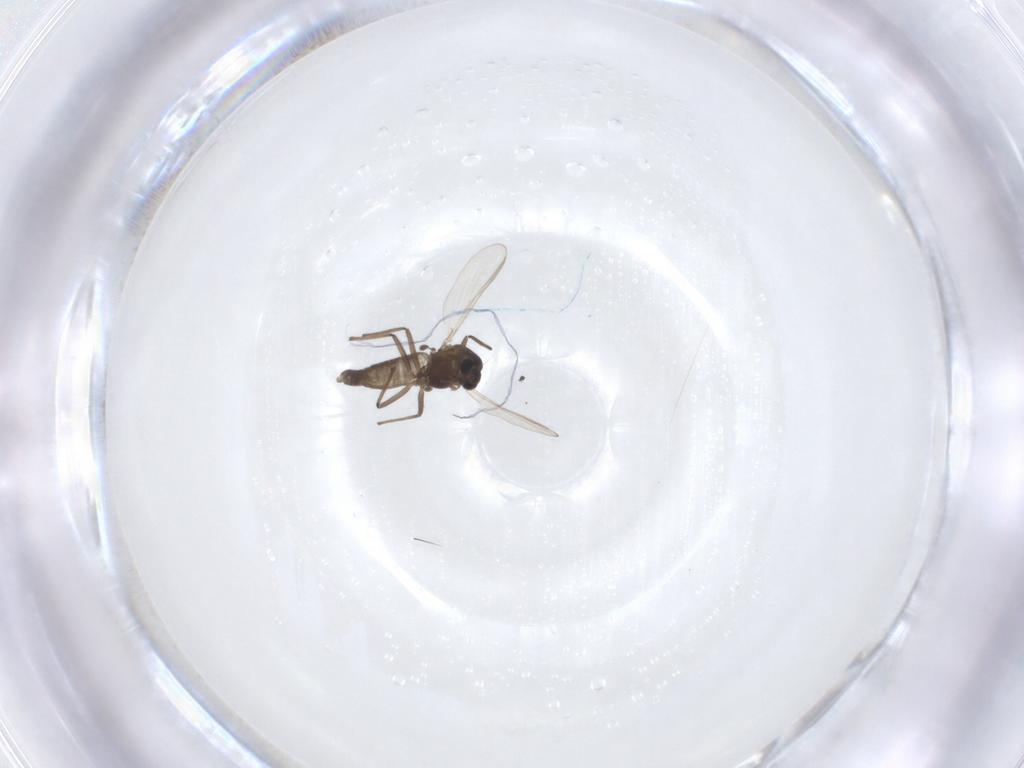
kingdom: Animalia
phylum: Arthropoda
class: Insecta
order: Diptera
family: Chironomidae
